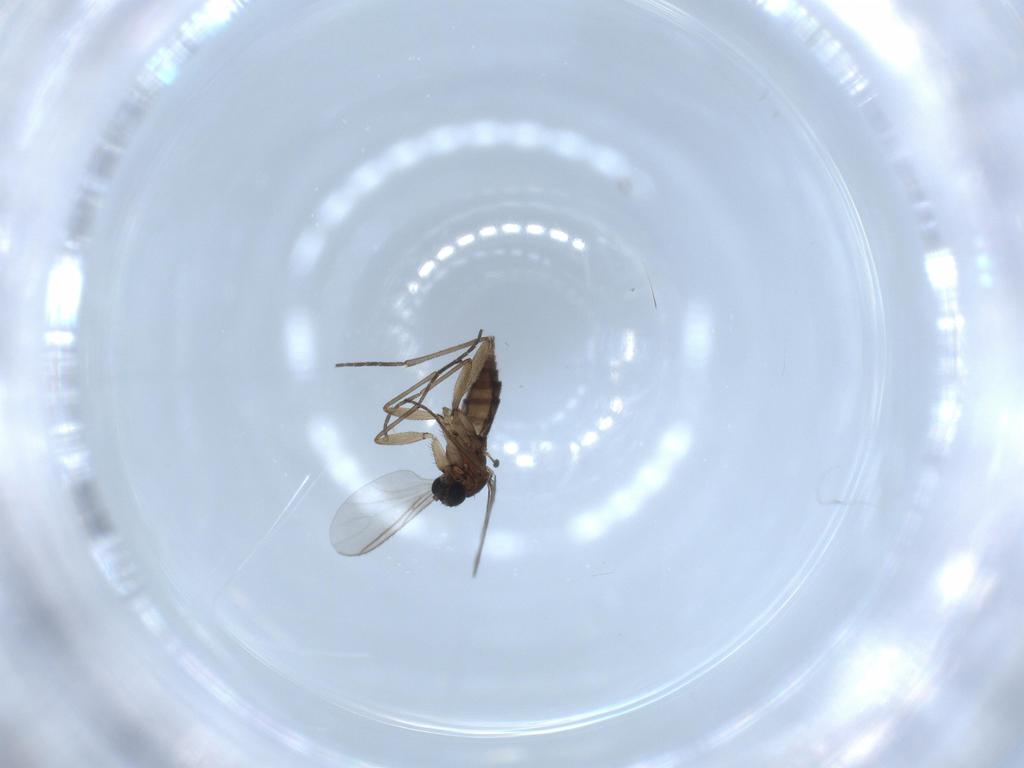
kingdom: Animalia
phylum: Arthropoda
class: Insecta
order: Diptera
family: Sciaridae
